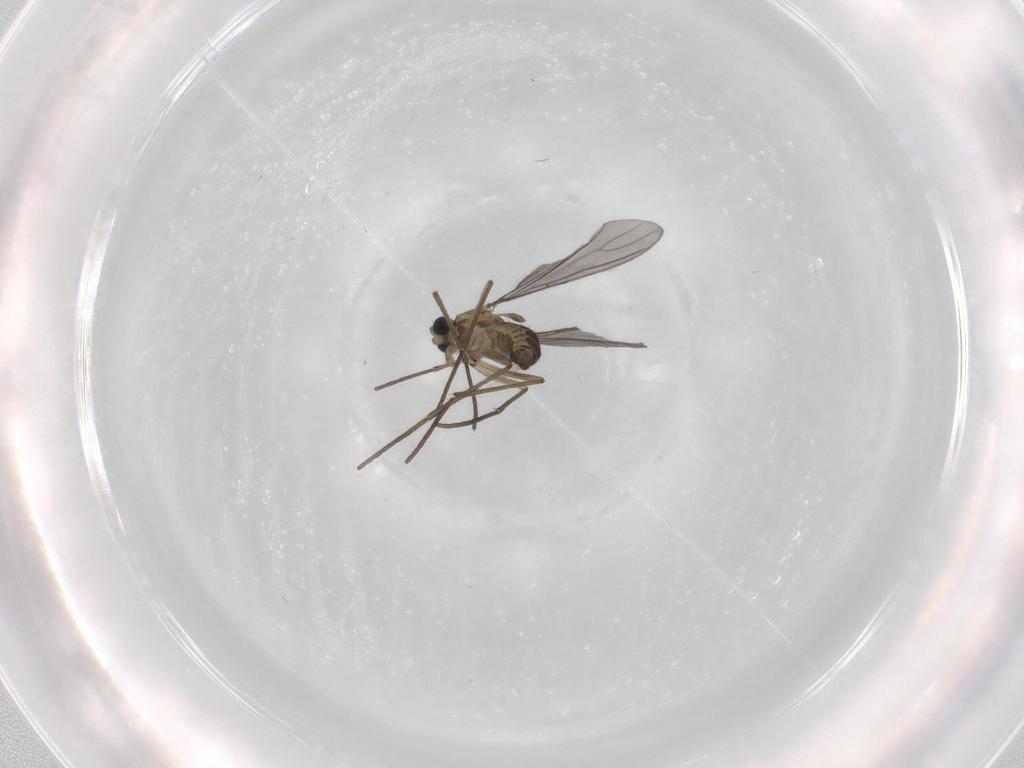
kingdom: Animalia
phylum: Arthropoda
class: Insecta
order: Diptera
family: Sciaridae
